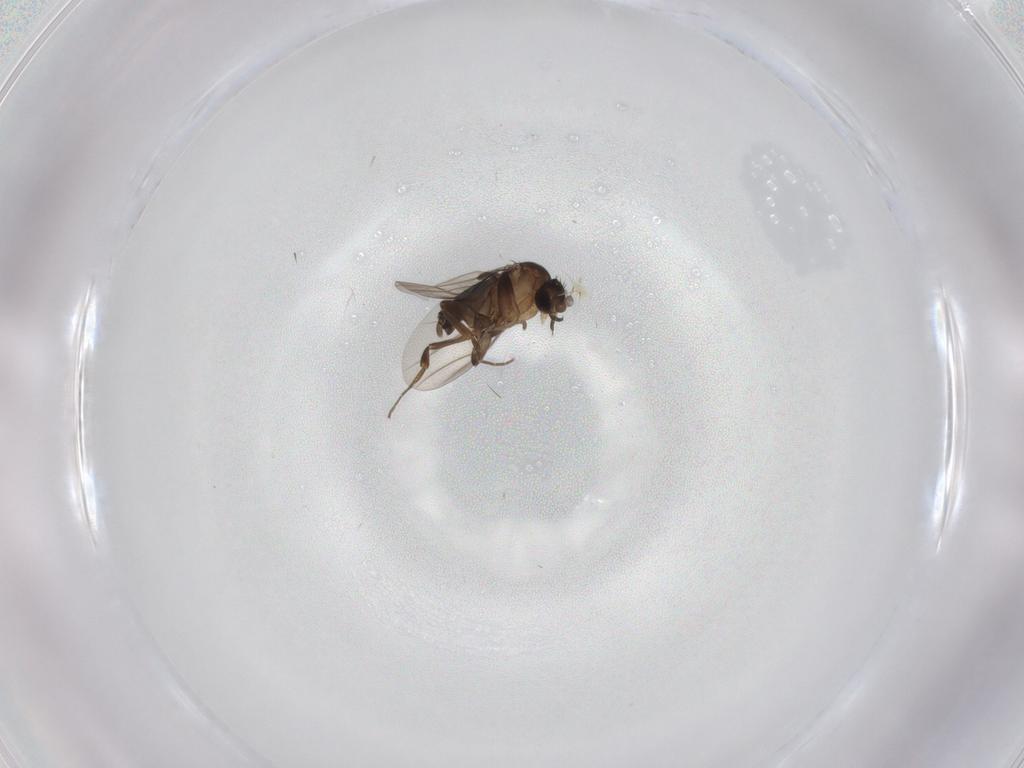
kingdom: Animalia
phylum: Arthropoda
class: Insecta
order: Diptera
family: Phoridae
